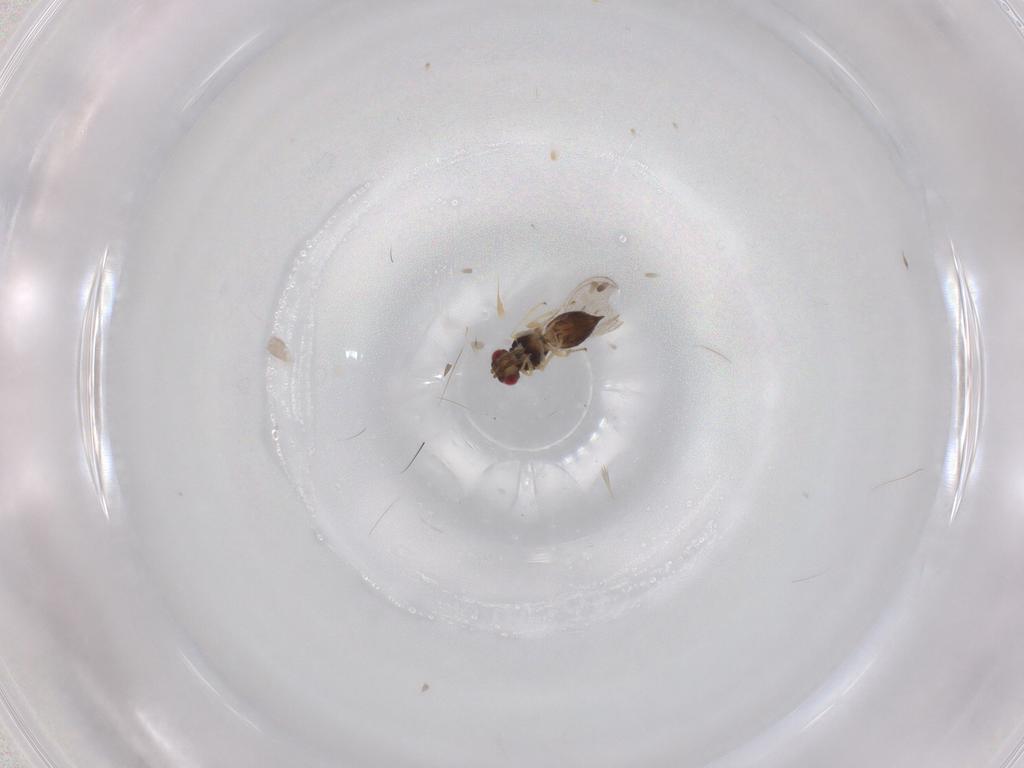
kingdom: Animalia
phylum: Arthropoda
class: Insecta
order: Hymenoptera
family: Eulophidae
